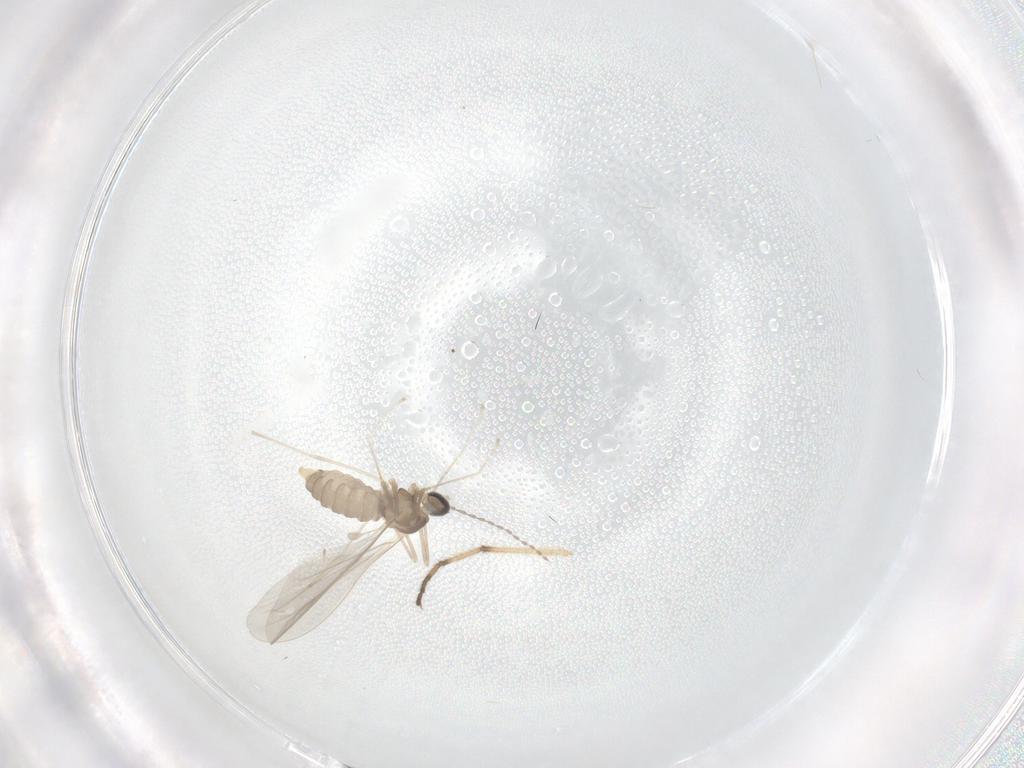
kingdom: Animalia
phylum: Arthropoda
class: Insecta
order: Diptera
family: Cecidomyiidae
